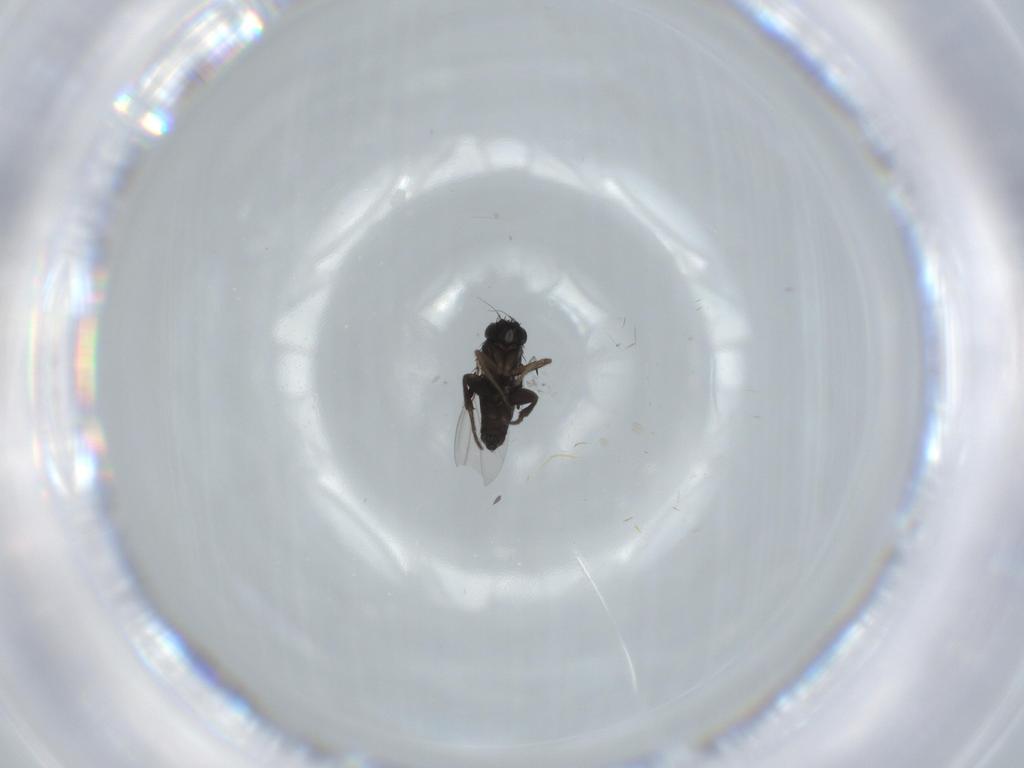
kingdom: Animalia
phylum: Arthropoda
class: Insecta
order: Diptera
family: Phoridae
